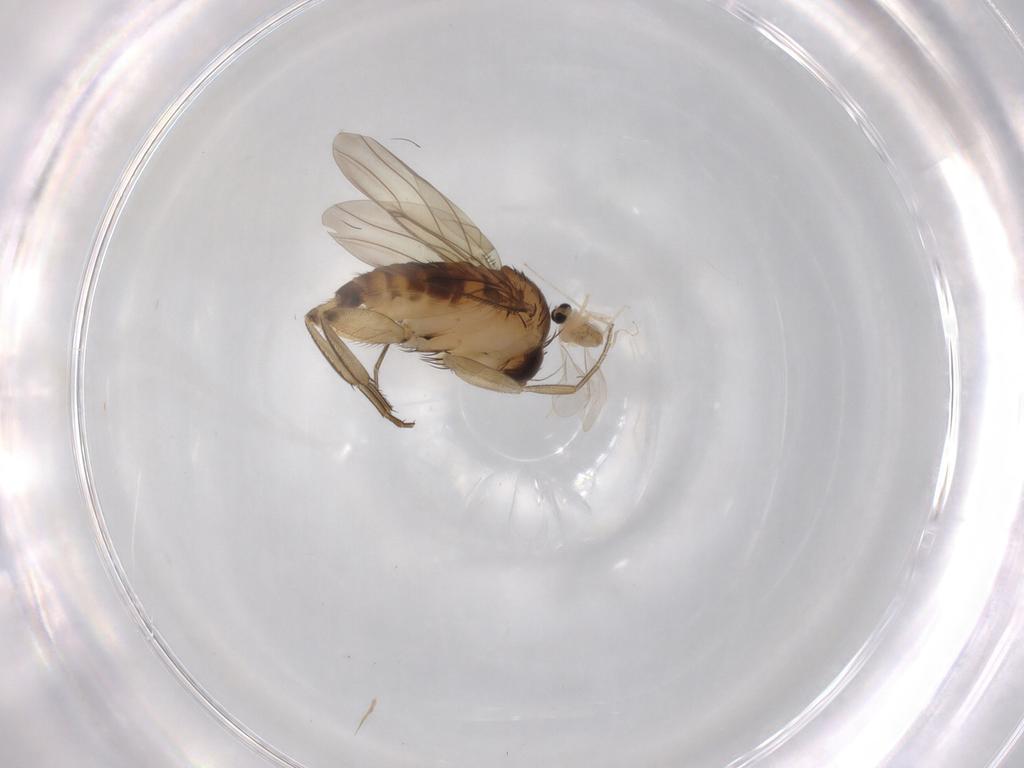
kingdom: Animalia
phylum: Arthropoda
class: Insecta
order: Diptera
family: Cecidomyiidae
